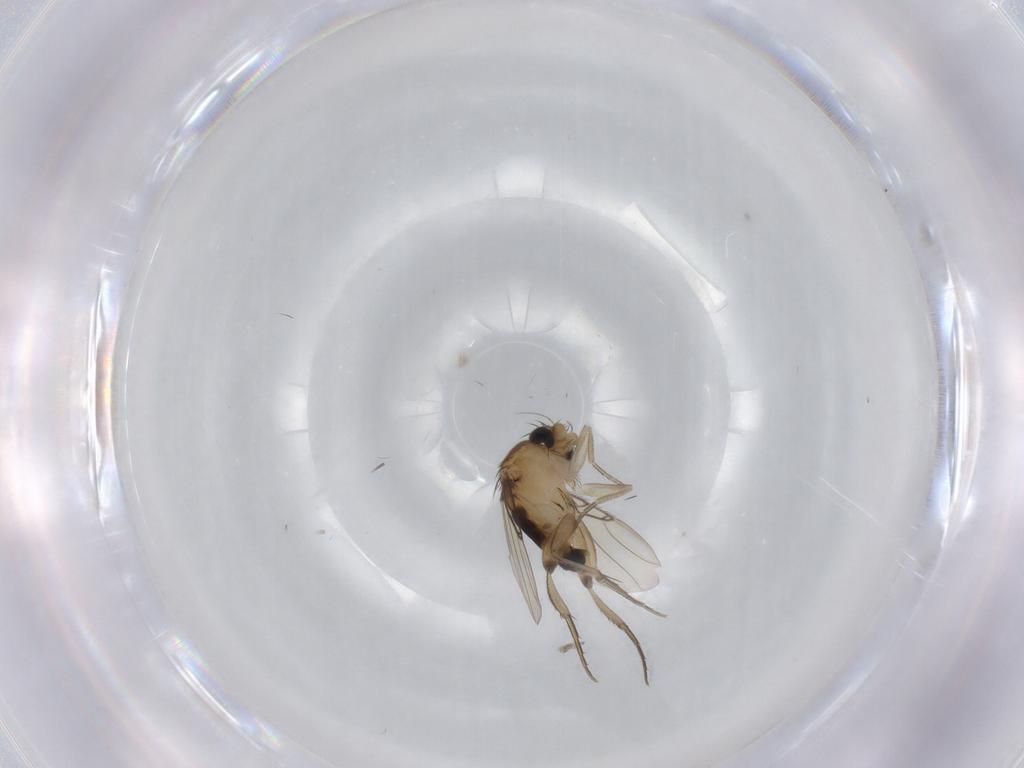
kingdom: Animalia
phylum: Arthropoda
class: Insecta
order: Diptera
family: Phoridae
